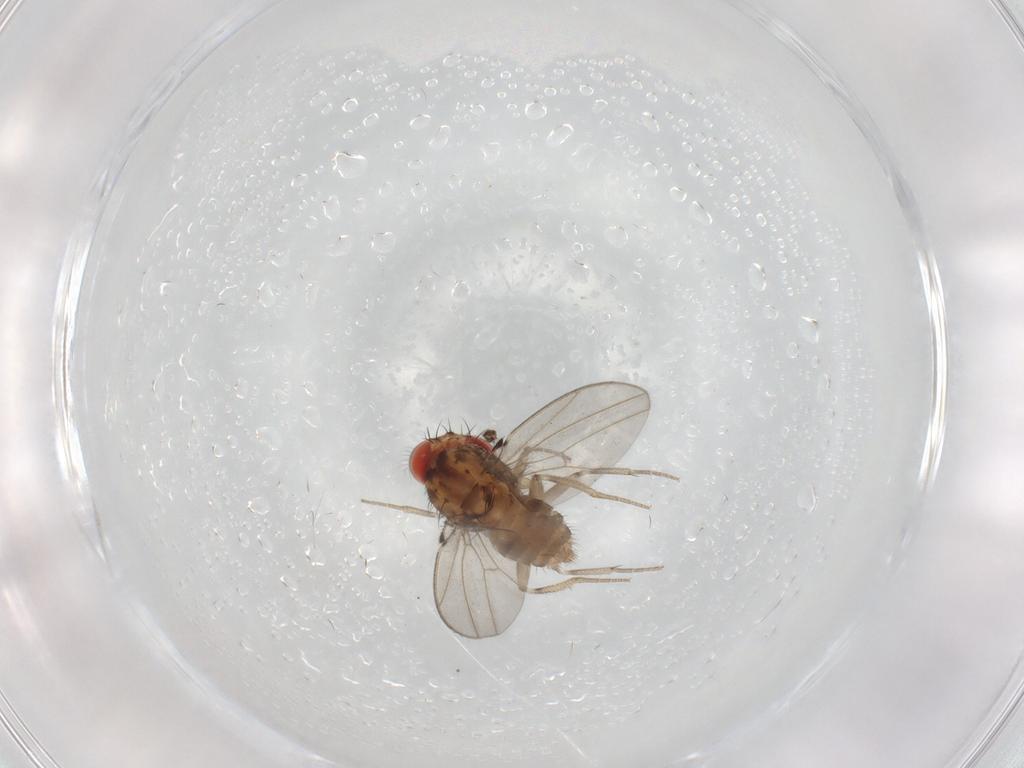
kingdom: Animalia
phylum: Arthropoda
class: Insecta
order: Diptera
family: Drosophilidae
